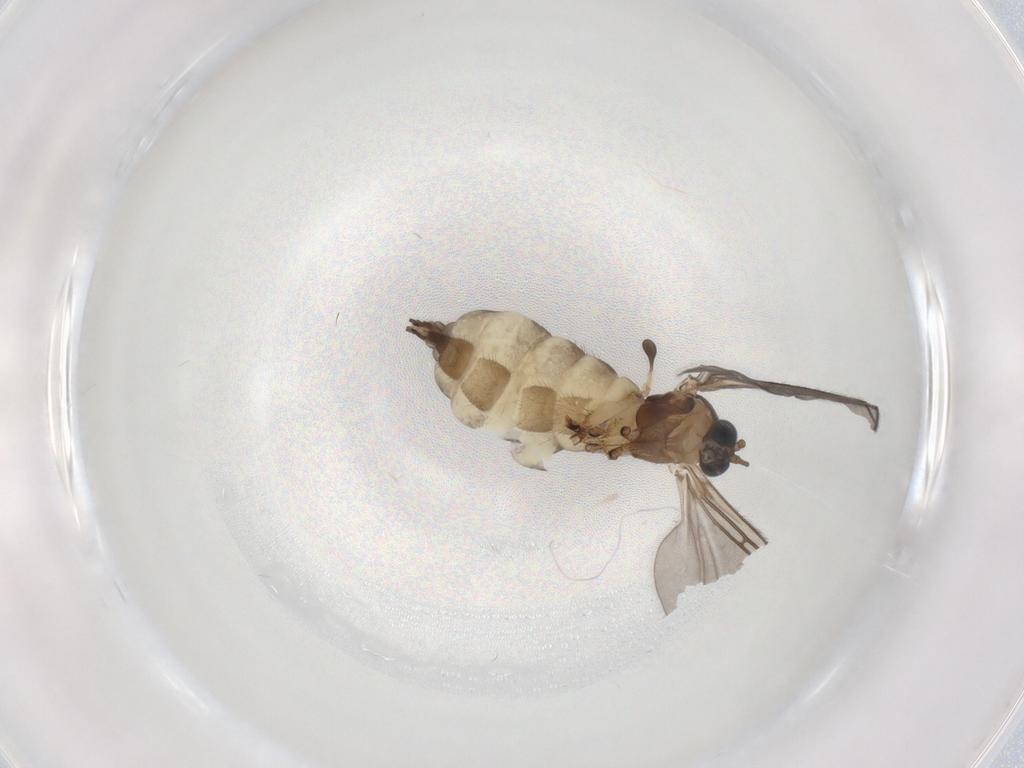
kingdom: Animalia
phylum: Arthropoda
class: Insecta
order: Diptera
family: Sciaridae
